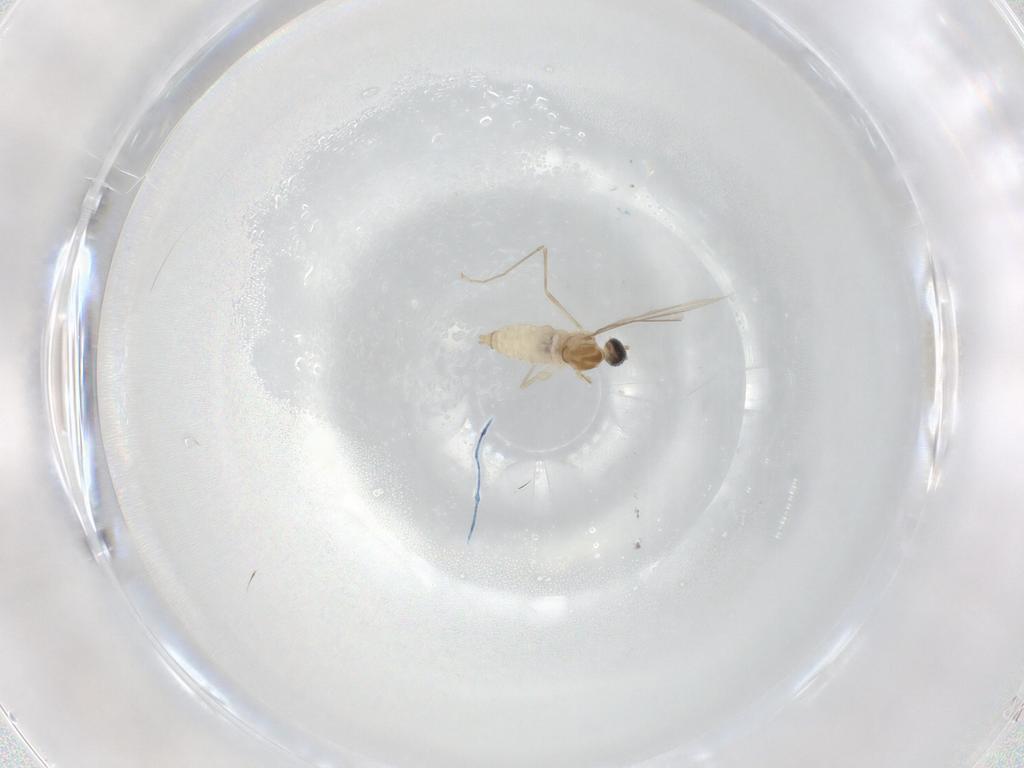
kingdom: Animalia
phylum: Arthropoda
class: Insecta
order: Diptera
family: Cecidomyiidae
